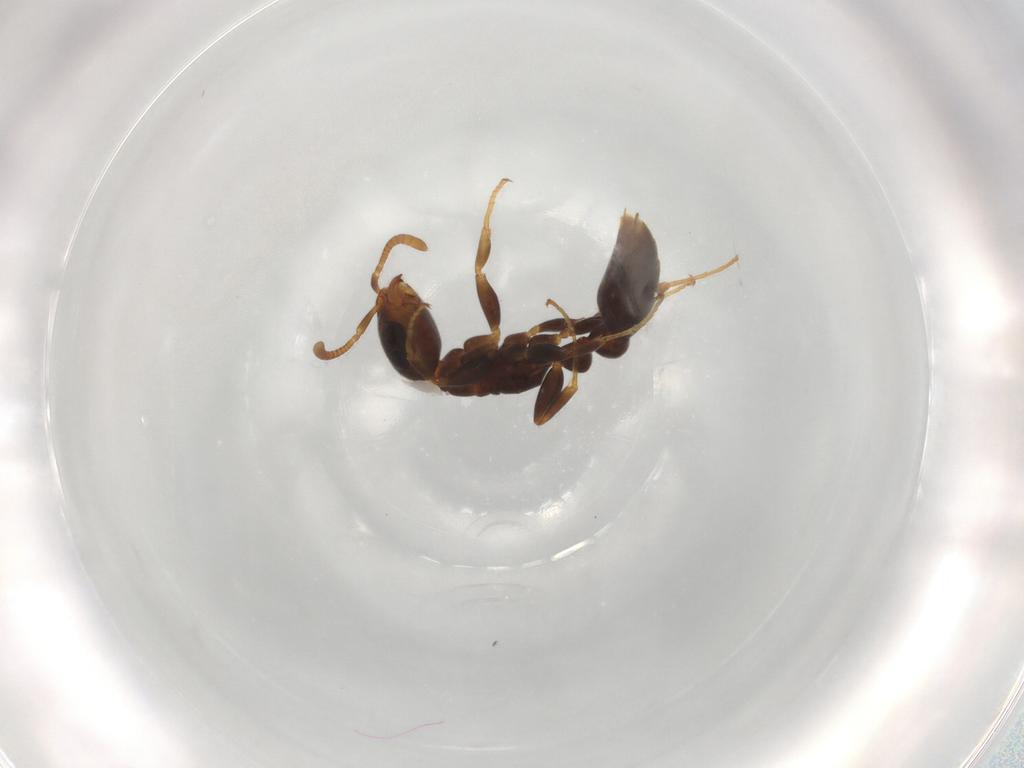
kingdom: Animalia
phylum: Arthropoda
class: Insecta
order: Hymenoptera
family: Formicidae
